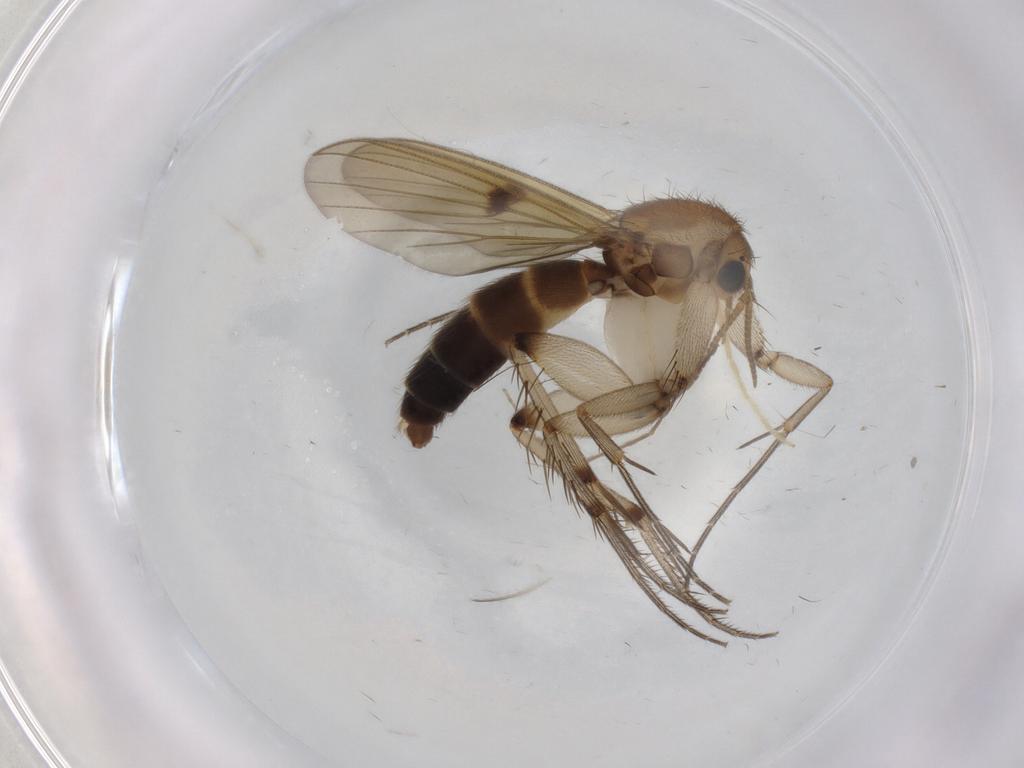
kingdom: Animalia
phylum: Arthropoda
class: Insecta
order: Diptera
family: Mycetophilidae
